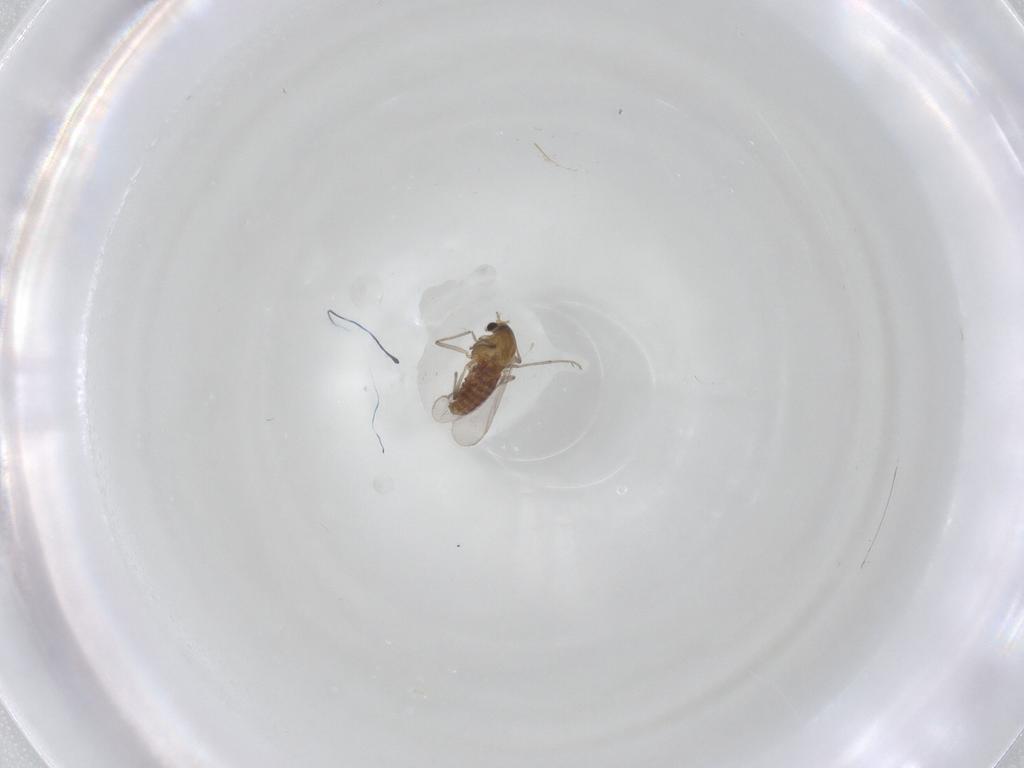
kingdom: Animalia
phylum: Arthropoda
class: Insecta
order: Diptera
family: Chironomidae
